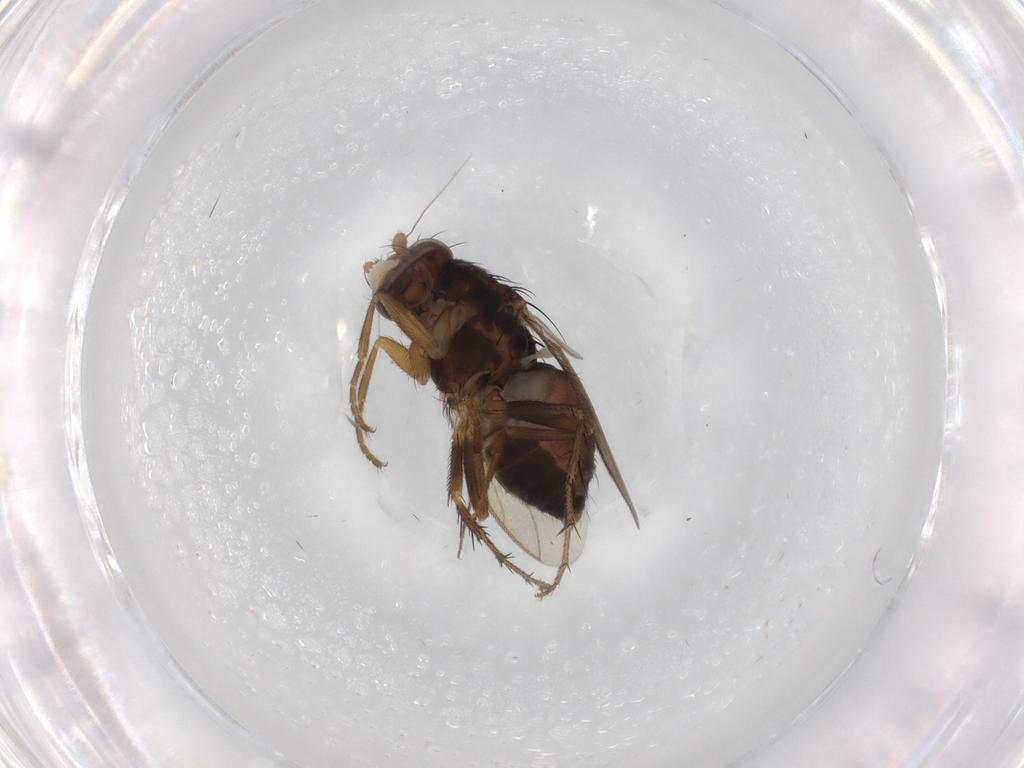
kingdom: Animalia
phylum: Arthropoda
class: Insecta
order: Diptera
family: Sphaeroceridae
